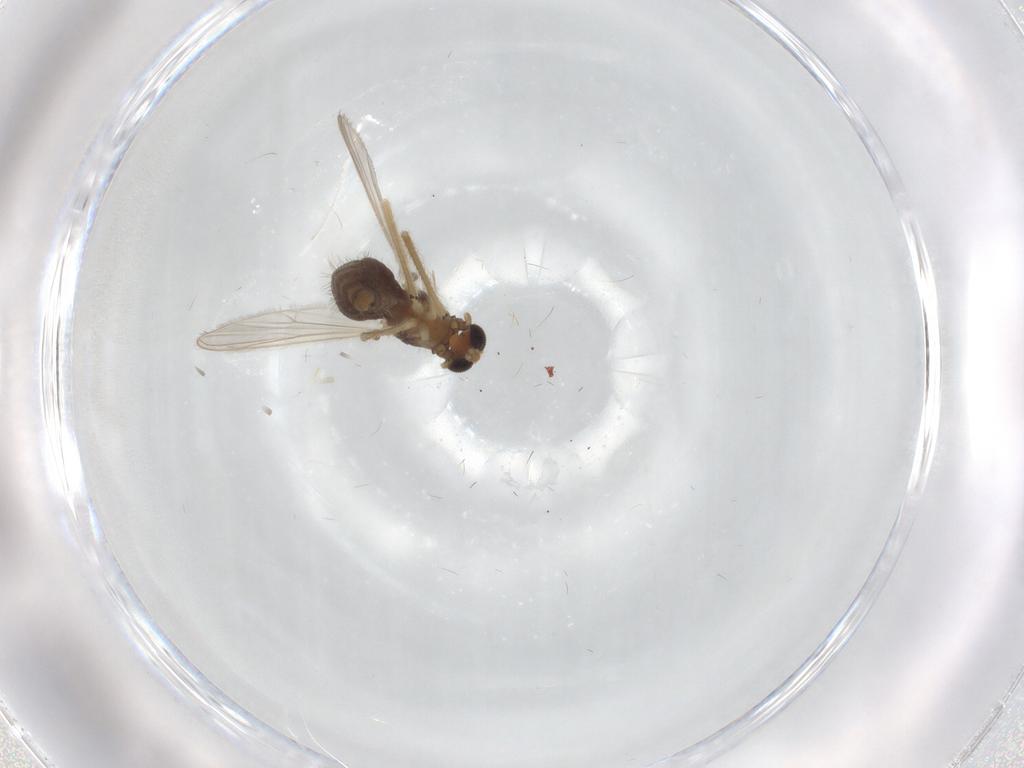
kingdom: Animalia
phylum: Arthropoda
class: Insecta
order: Diptera
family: Chironomidae
